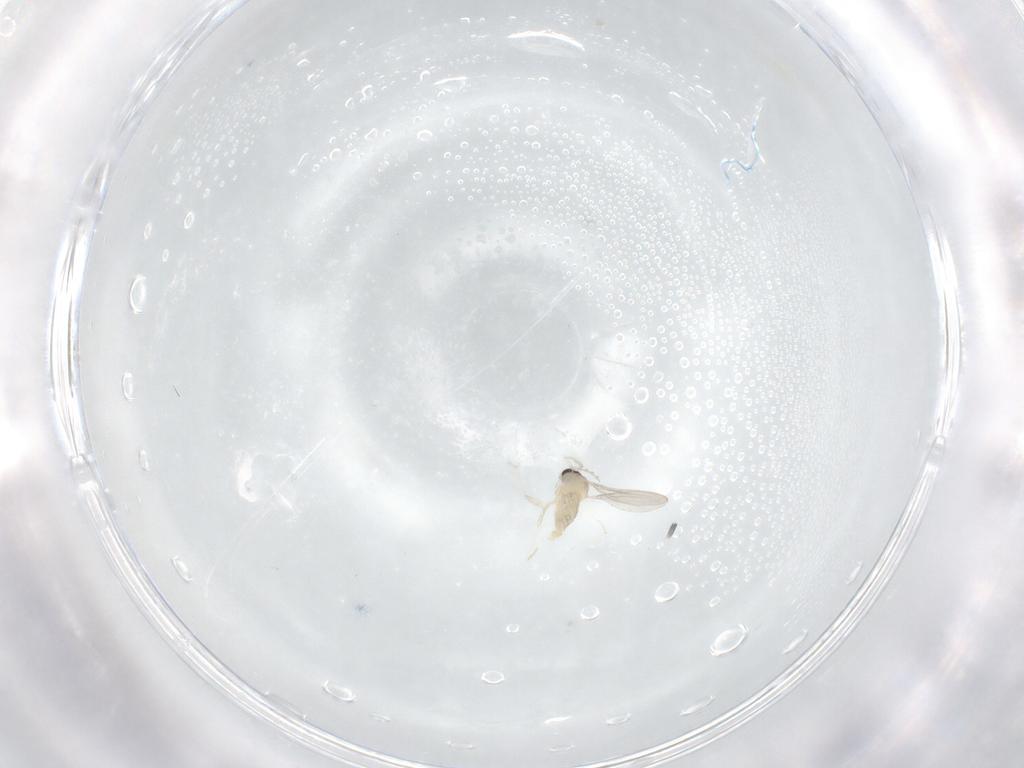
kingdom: Animalia
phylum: Arthropoda
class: Insecta
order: Diptera
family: Cecidomyiidae
